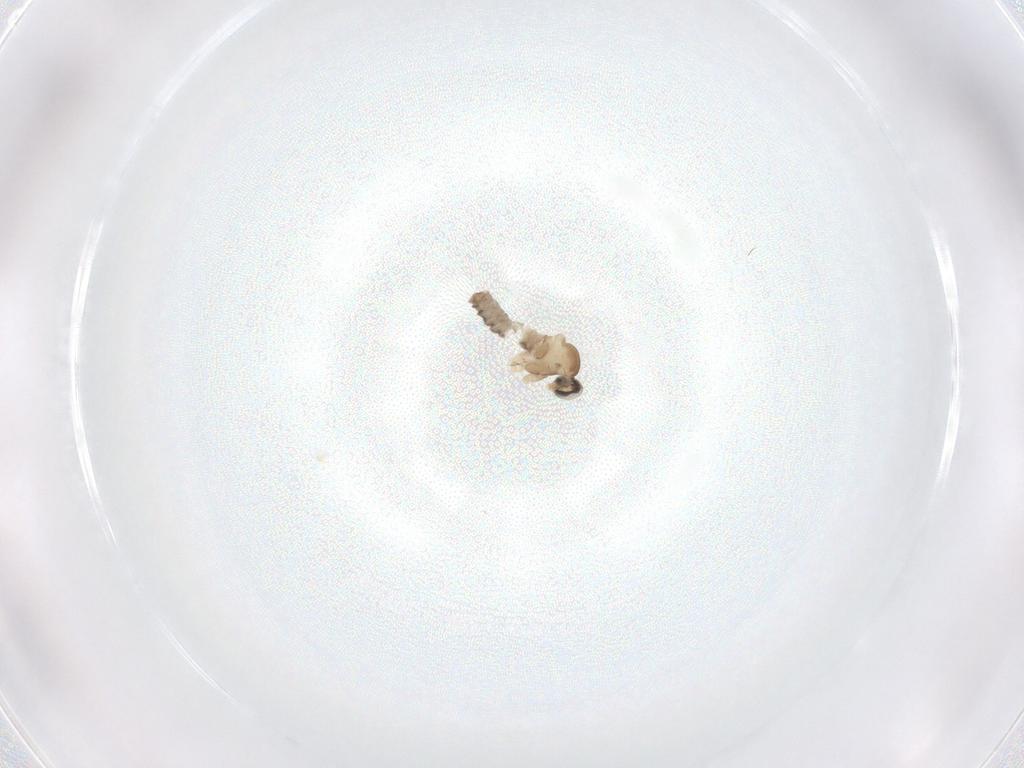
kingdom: Animalia
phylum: Arthropoda
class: Insecta
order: Diptera
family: Cecidomyiidae
